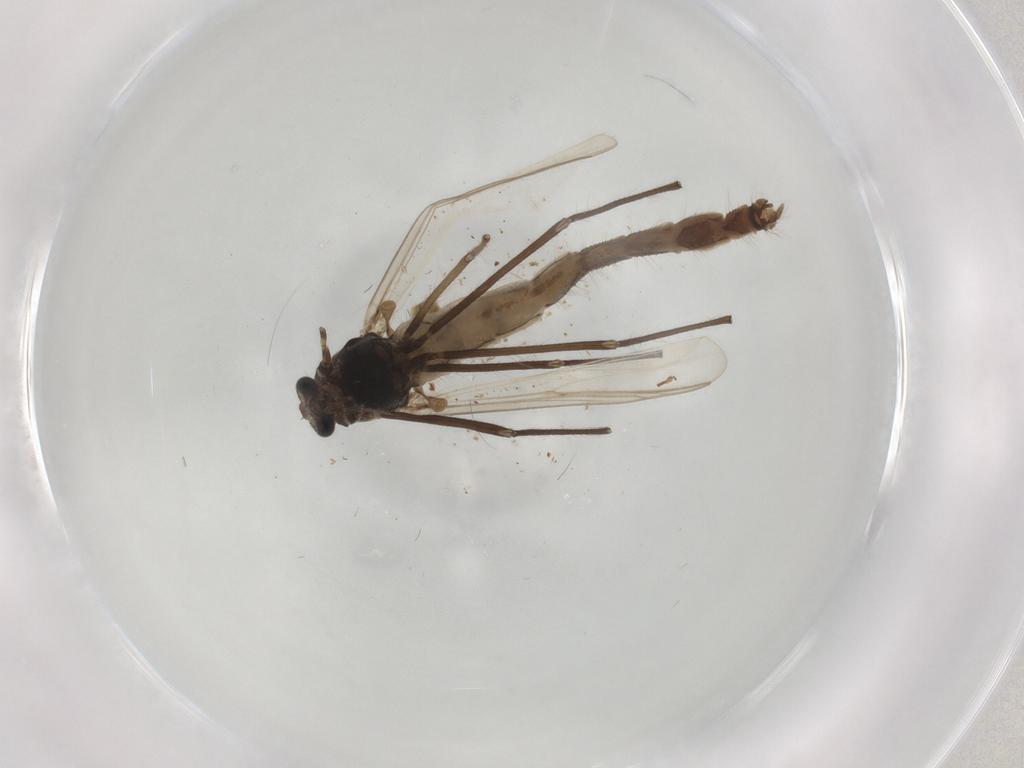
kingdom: Animalia
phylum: Arthropoda
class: Insecta
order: Diptera
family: Chironomidae
